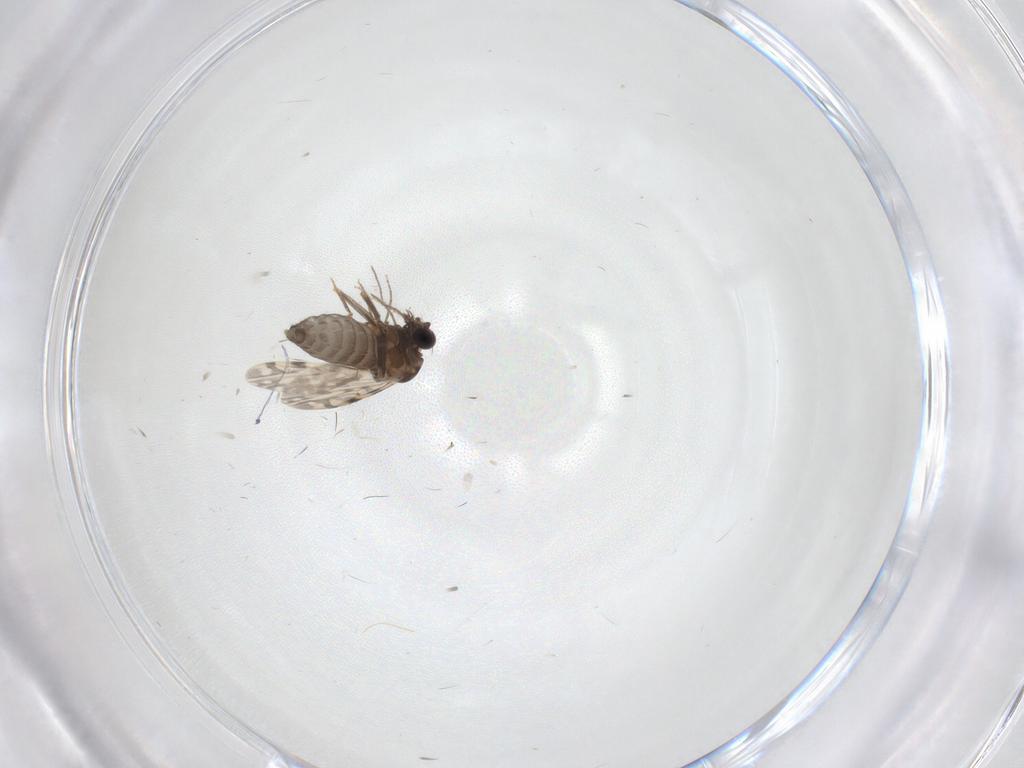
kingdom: Animalia
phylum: Arthropoda
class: Insecta
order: Diptera
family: Ceratopogonidae
